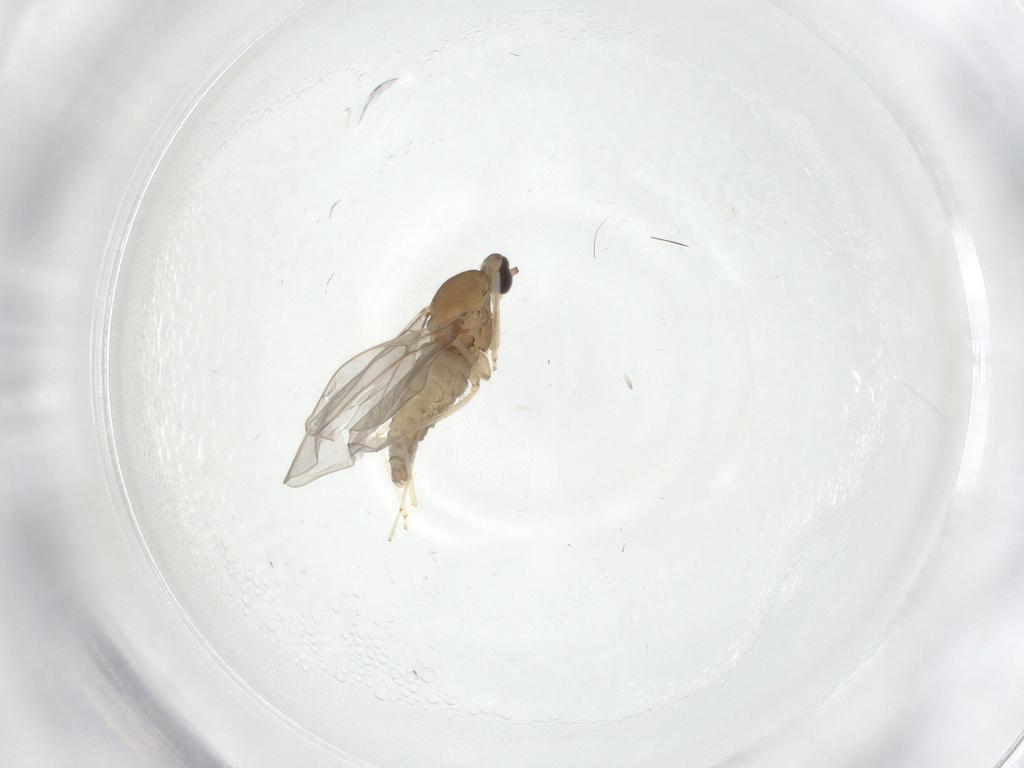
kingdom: Animalia
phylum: Arthropoda
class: Insecta
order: Diptera
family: Cecidomyiidae
